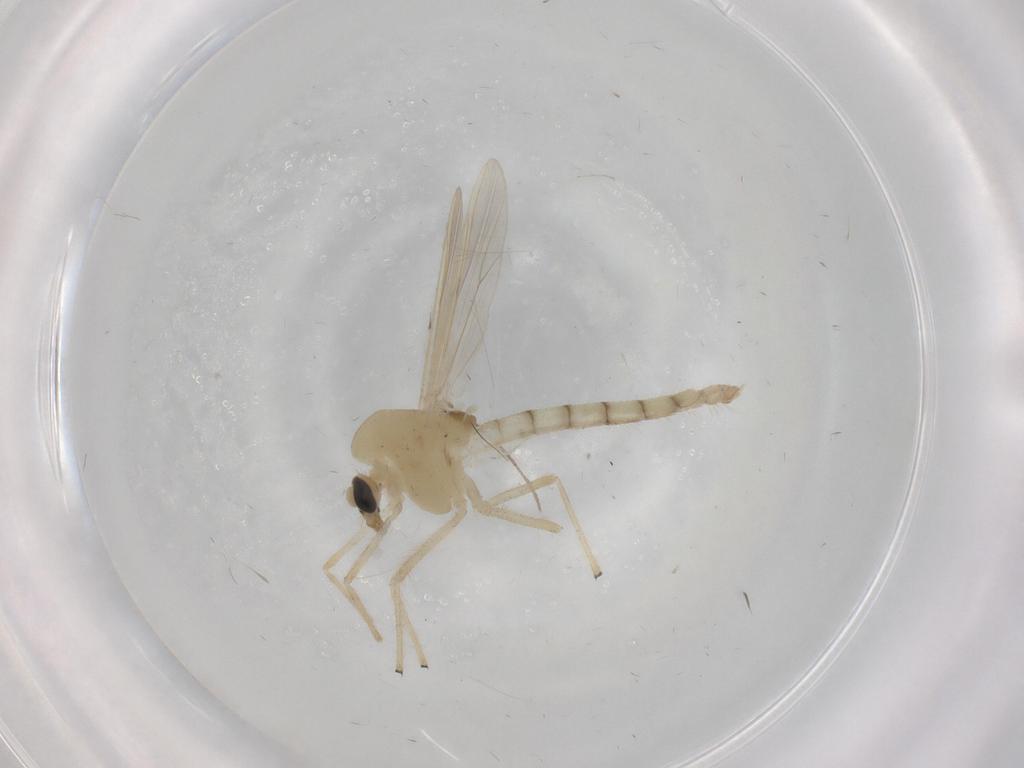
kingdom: Animalia
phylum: Arthropoda
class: Insecta
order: Diptera
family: Chironomidae
